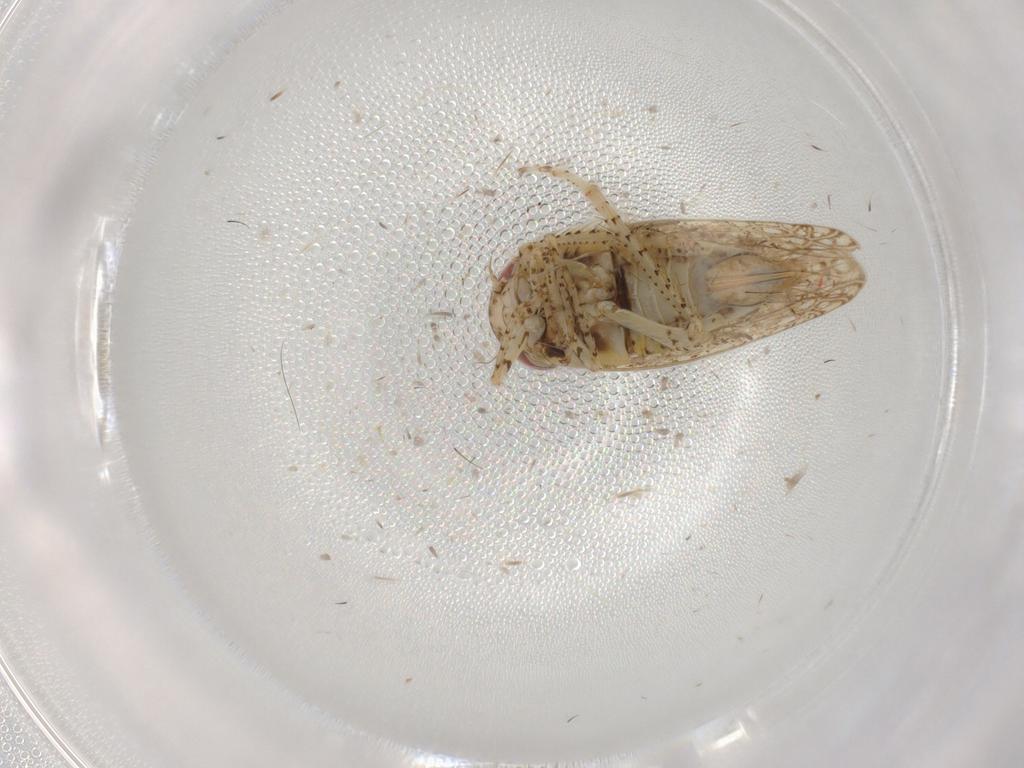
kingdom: Animalia
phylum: Arthropoda
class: Insecta
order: Hemiptera
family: Cicadellidae
